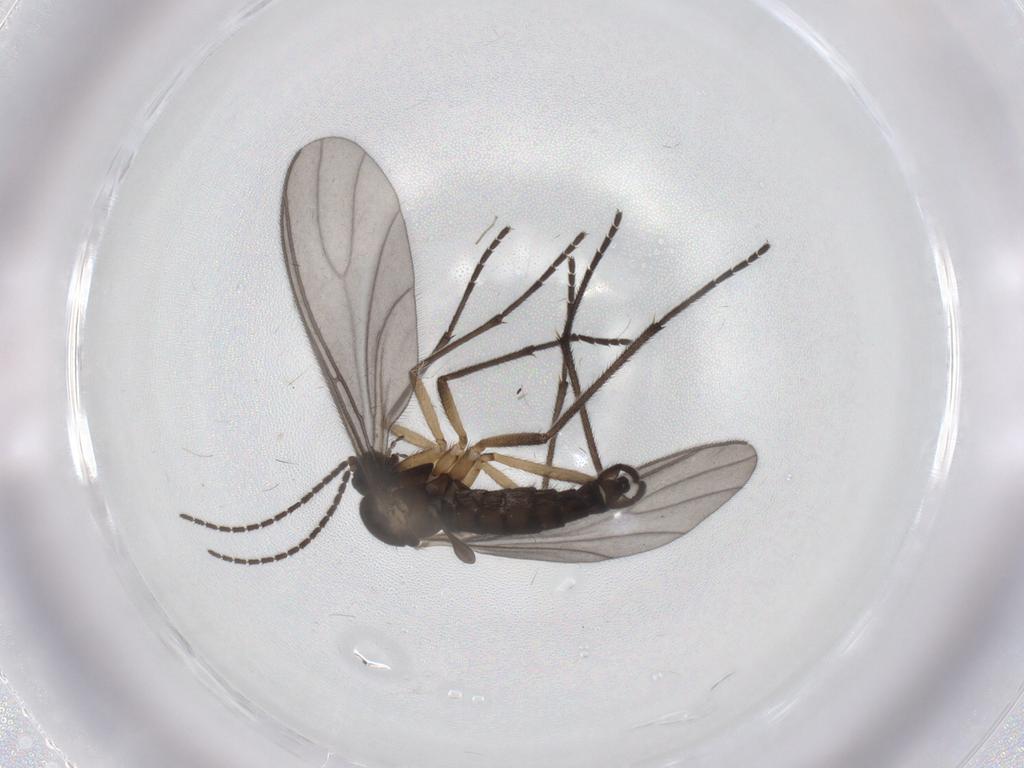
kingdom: Animalia
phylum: Arthropoda
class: Insecta
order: Diptera
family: Sciaridae
